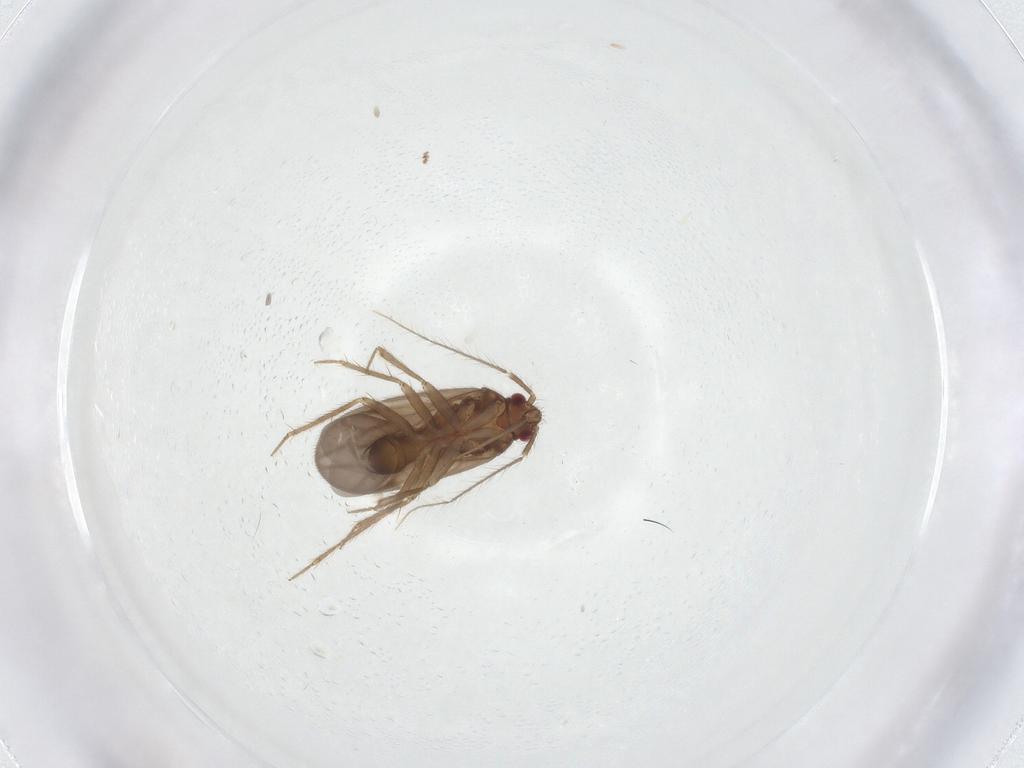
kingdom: Animalia
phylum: Arthropoda
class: Insecta
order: Hemiptera
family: Ceratocombidae
